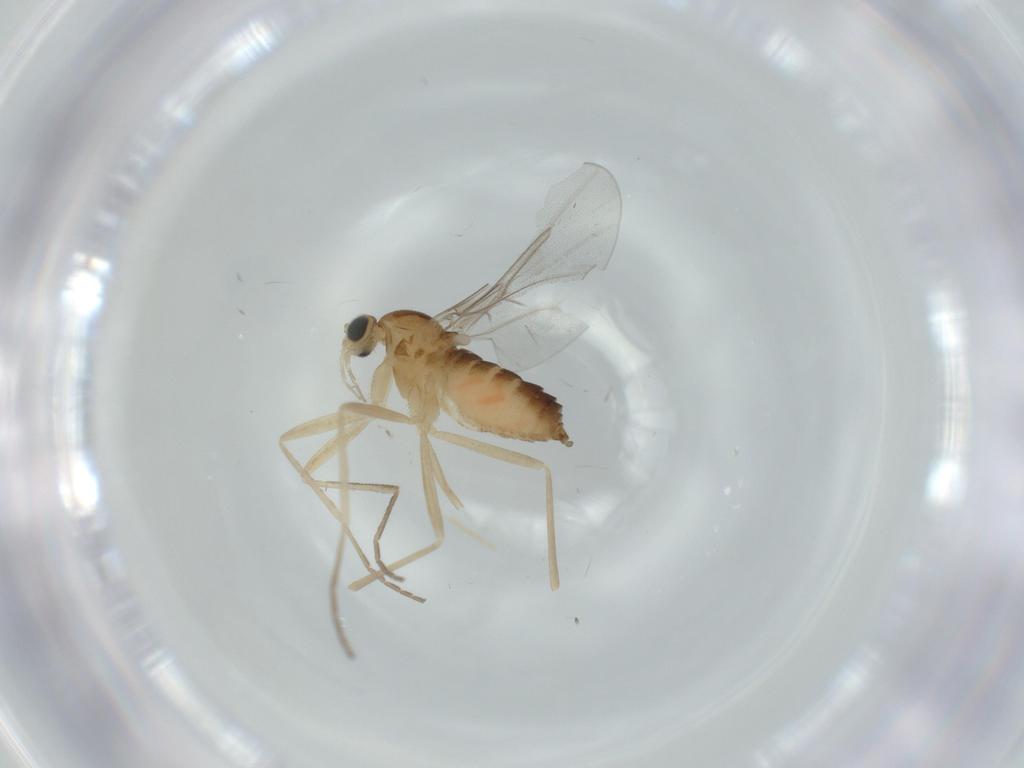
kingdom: Animalia
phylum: Arthropoda
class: Insecta
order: Diptera
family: Cecidomyiidae
